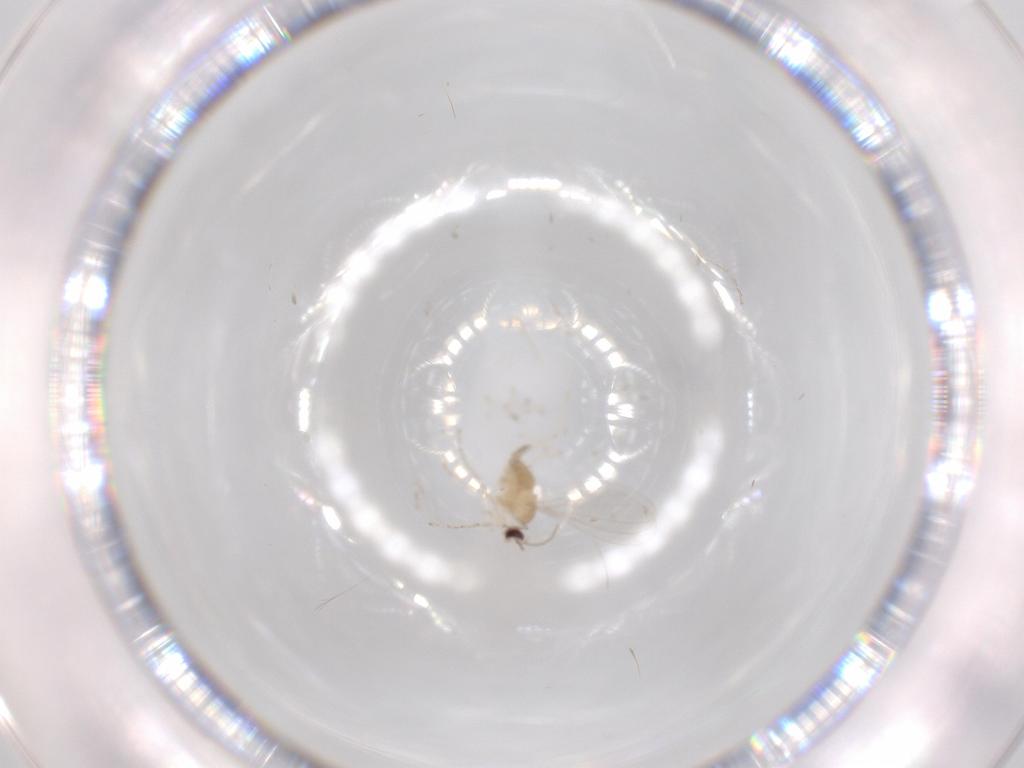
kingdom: Animalia
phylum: Arthropoda
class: Insecta
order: Diptera
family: Cecidomyiidae
